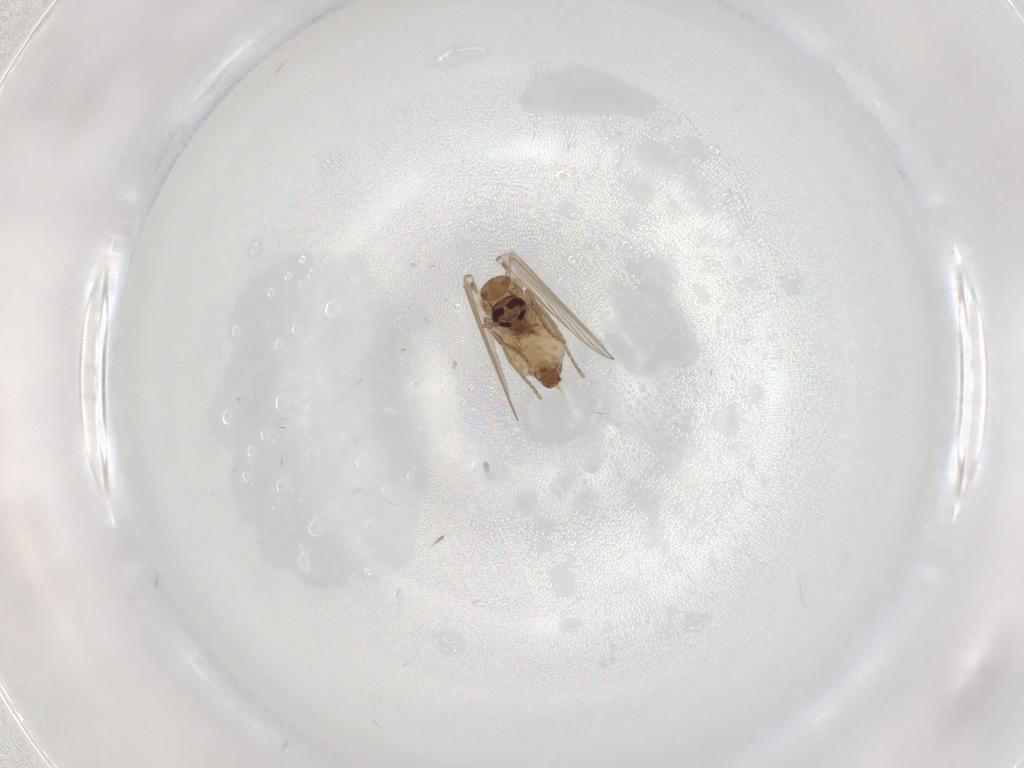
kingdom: Animalia
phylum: Arthropoda
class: Insecta
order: Diptera
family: Psychodidae
